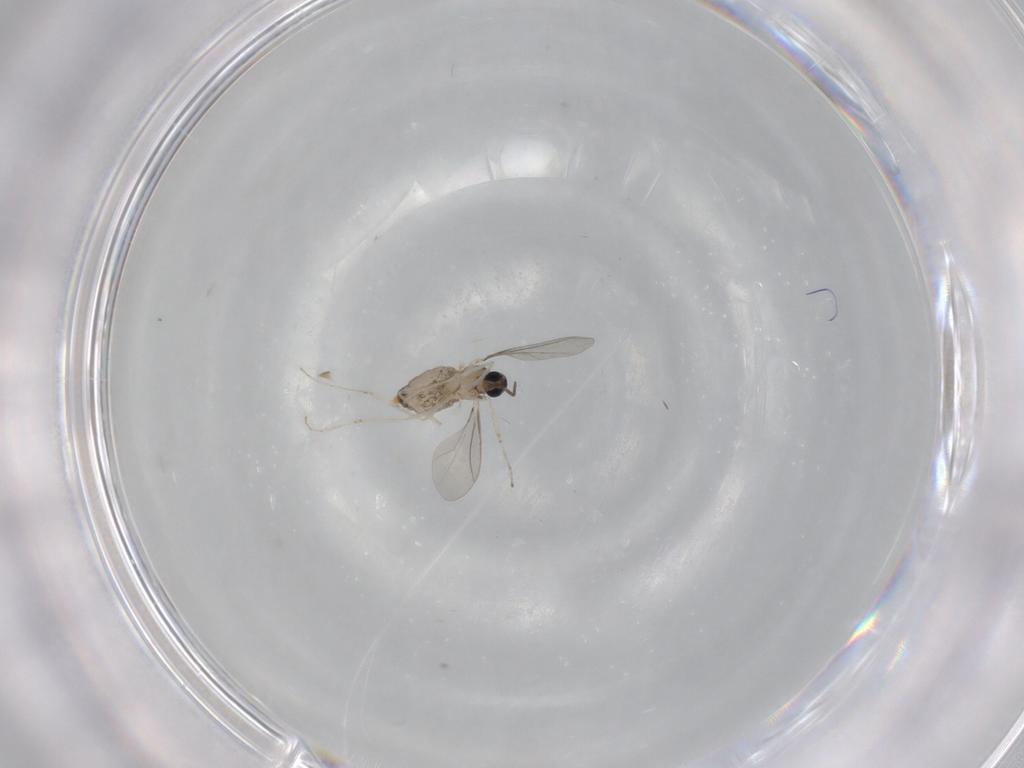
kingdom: Animalia
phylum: Arthropoda
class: Insecta
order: Diptera
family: Cecidomyiidae
